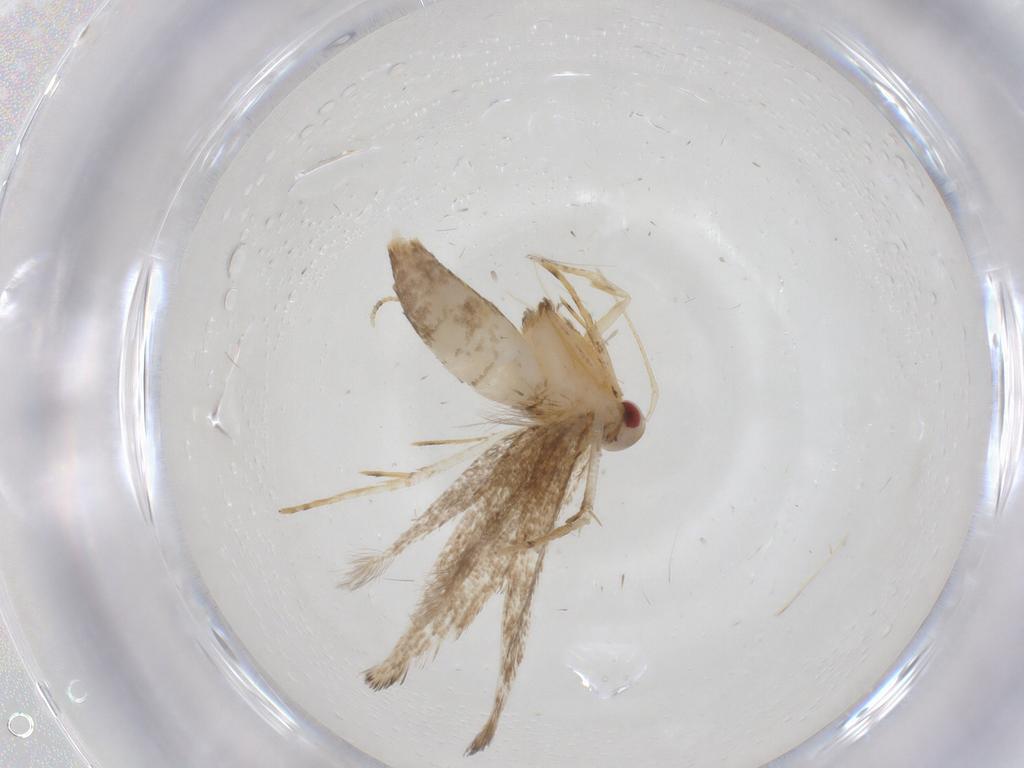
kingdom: Animalia
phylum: Arthropoda
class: Insecta
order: Lepidoptera
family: Cosmopterigidae
